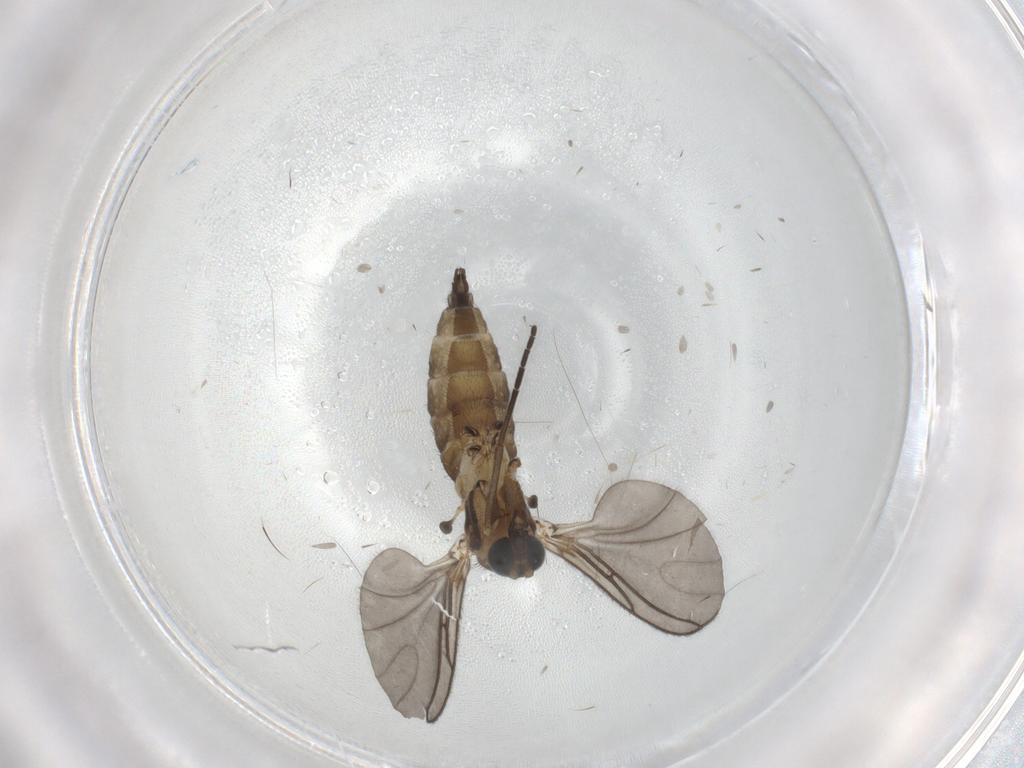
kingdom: Animalia
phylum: Arthropoda
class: Insecta
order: Diptera
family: Sciaridae
